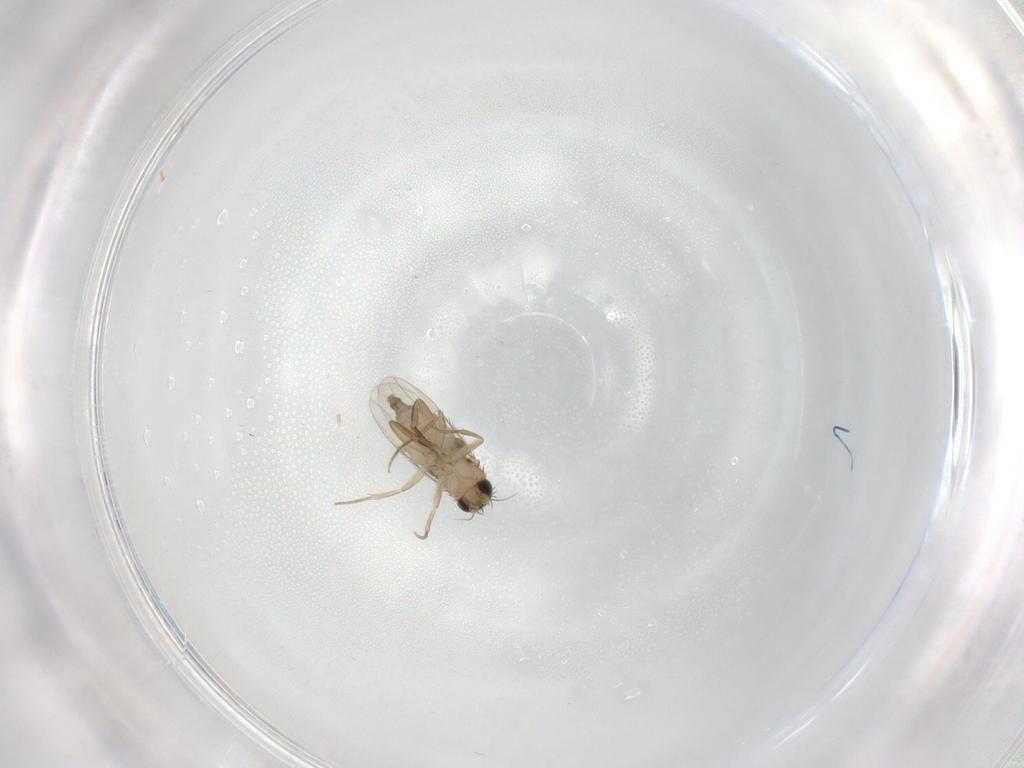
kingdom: Animalia
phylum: Arthropoda
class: Insecta
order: Diptera
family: Phoridae
